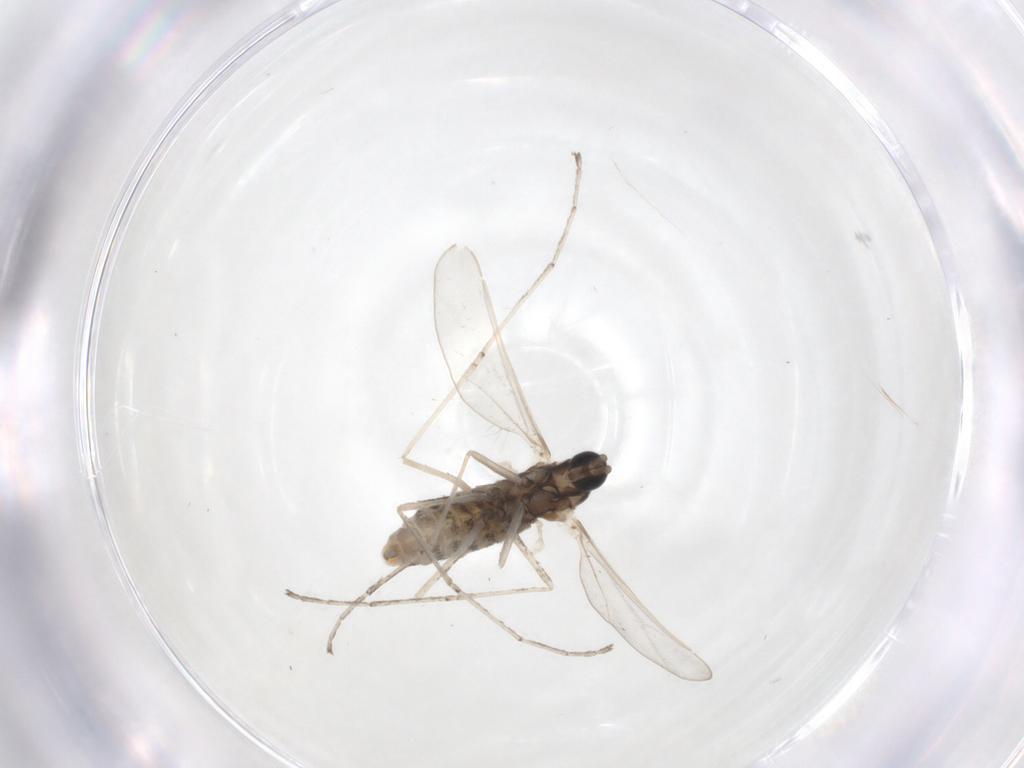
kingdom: Animalia
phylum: Arthropoda
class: Insecta
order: Diptera
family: Cecidomyiidae
